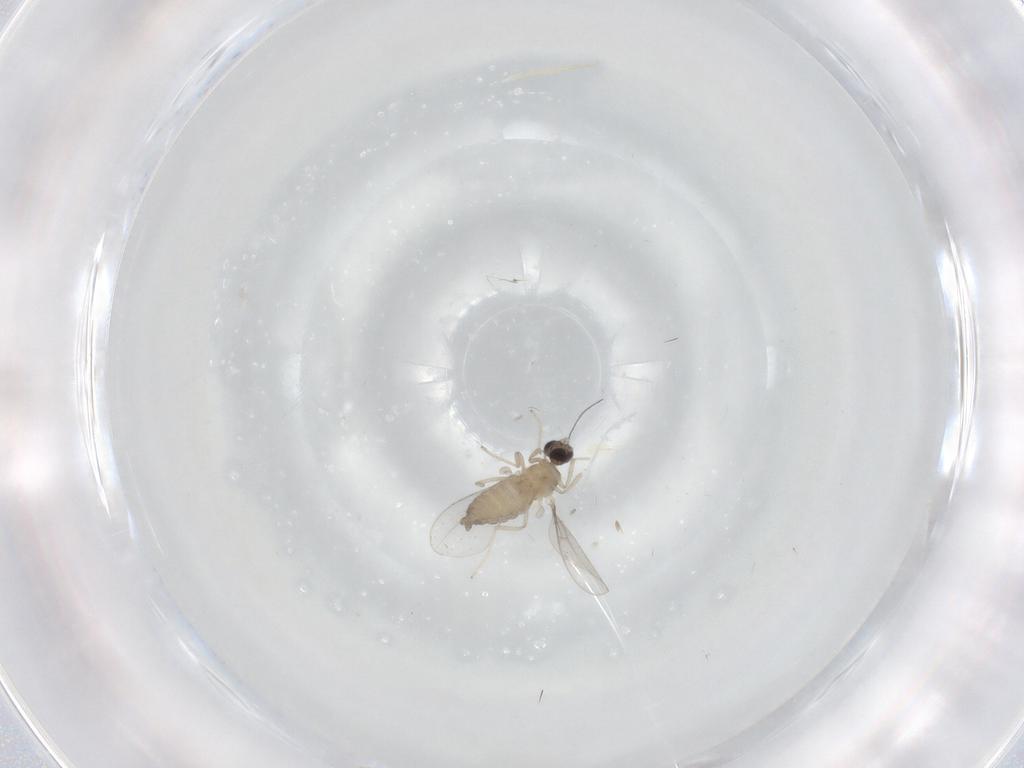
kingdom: Animalia
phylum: Arthropoda
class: Insecta
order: Diptera
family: Cecidomyiidae
